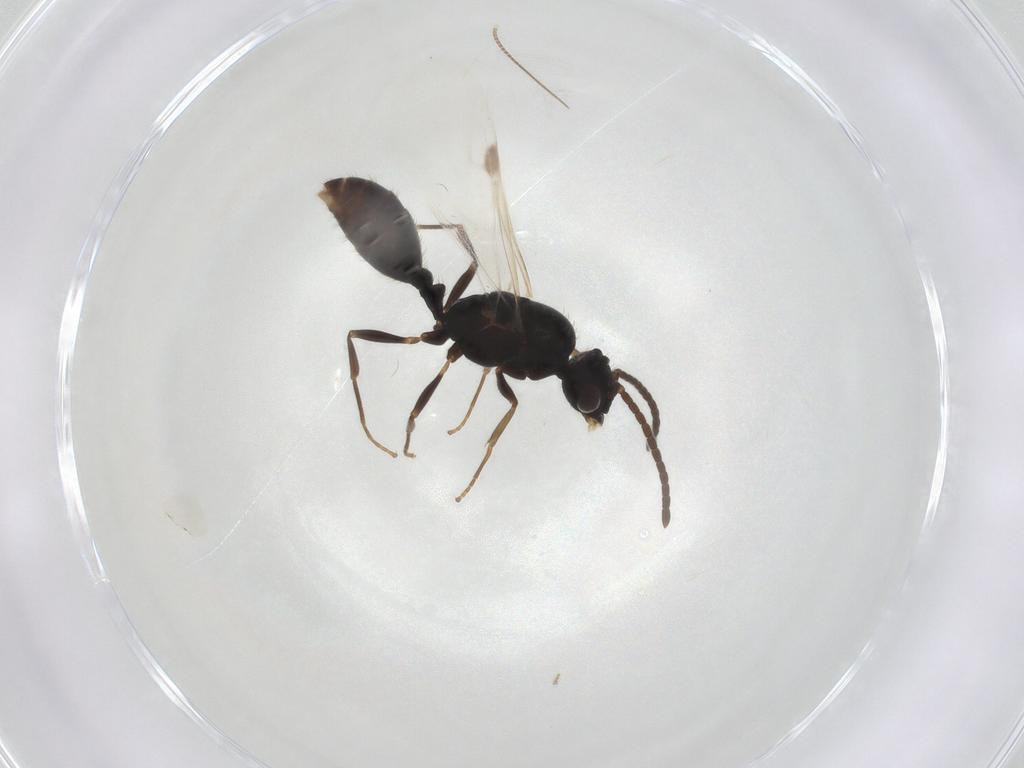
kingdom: Animalia
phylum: Arthropoda
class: Insecta
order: Hymenoptera
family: Formicidae
